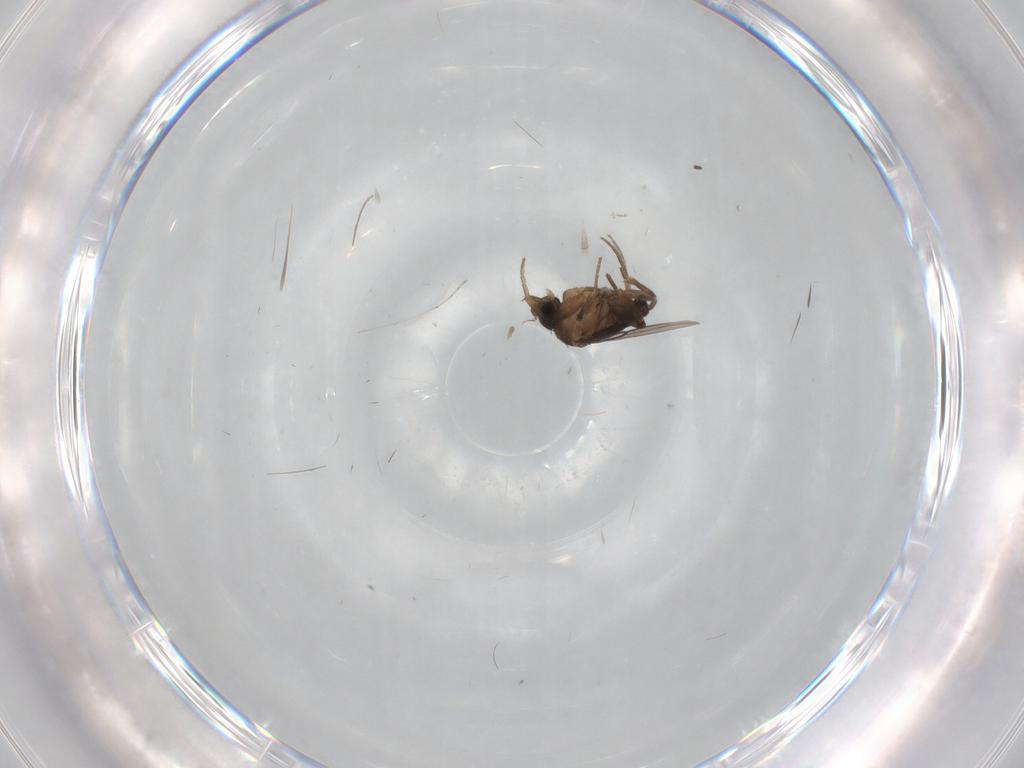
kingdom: Animalia
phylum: Arthropoda
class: Insecta
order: Diptera
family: Phoridae
